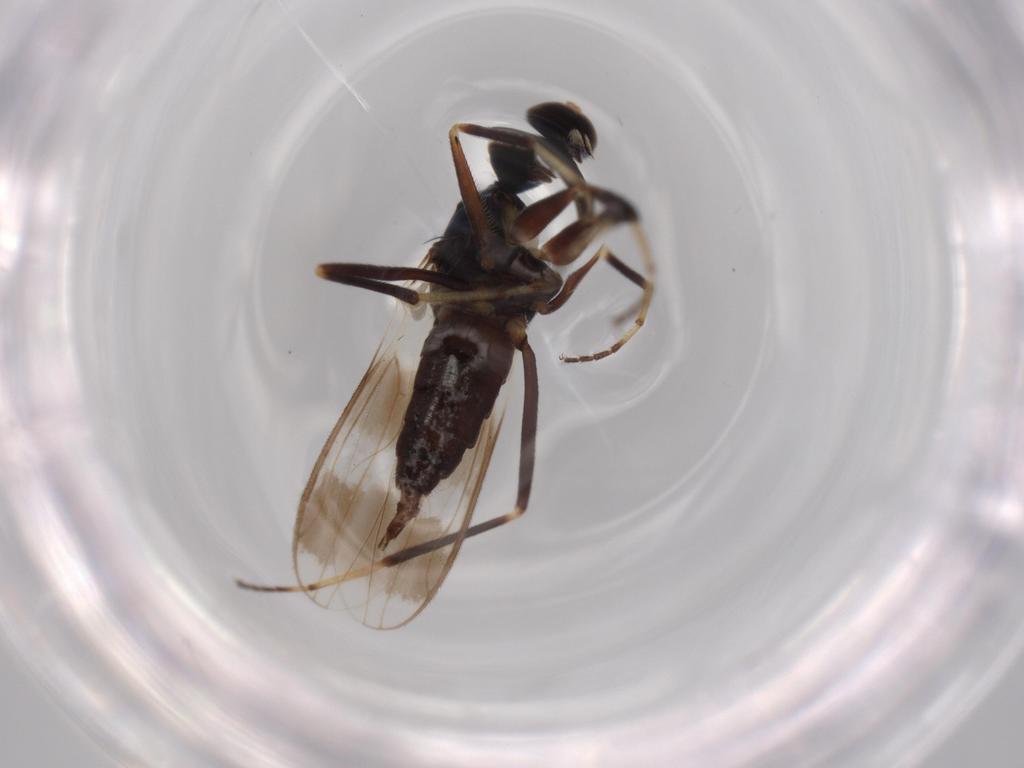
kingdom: Animalia
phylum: Arthropoda
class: Insecta
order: Diptera
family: Hybotidae
